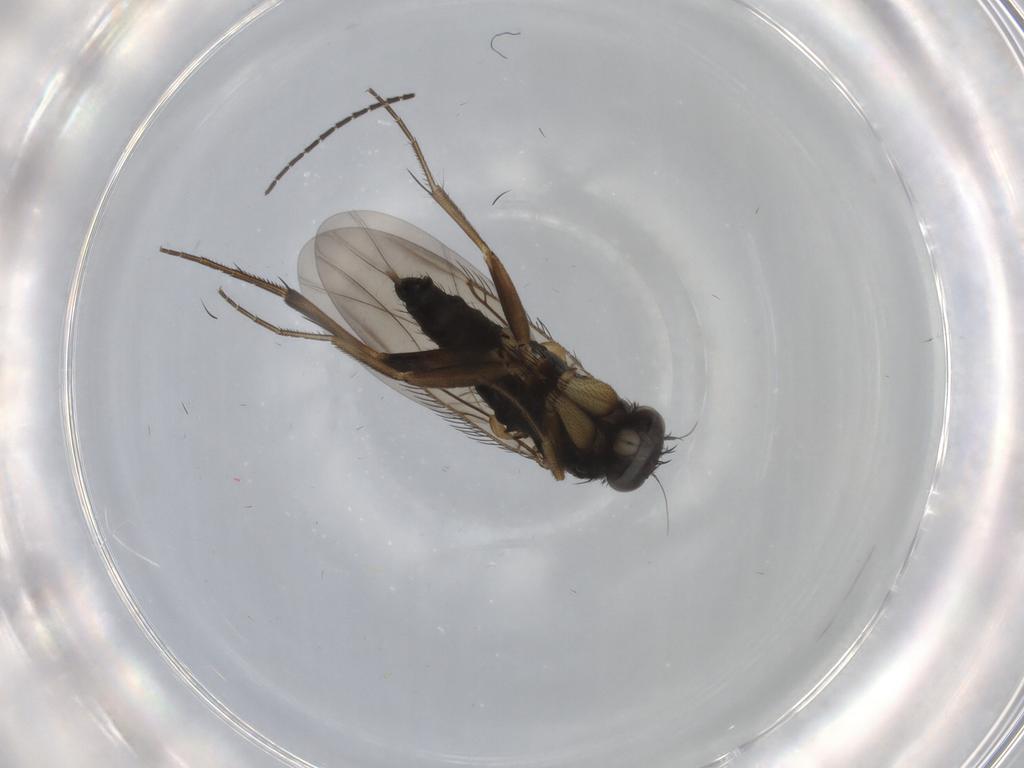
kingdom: Animalia
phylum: Arthropoda
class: Insecta
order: Diptera
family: Phoridae
